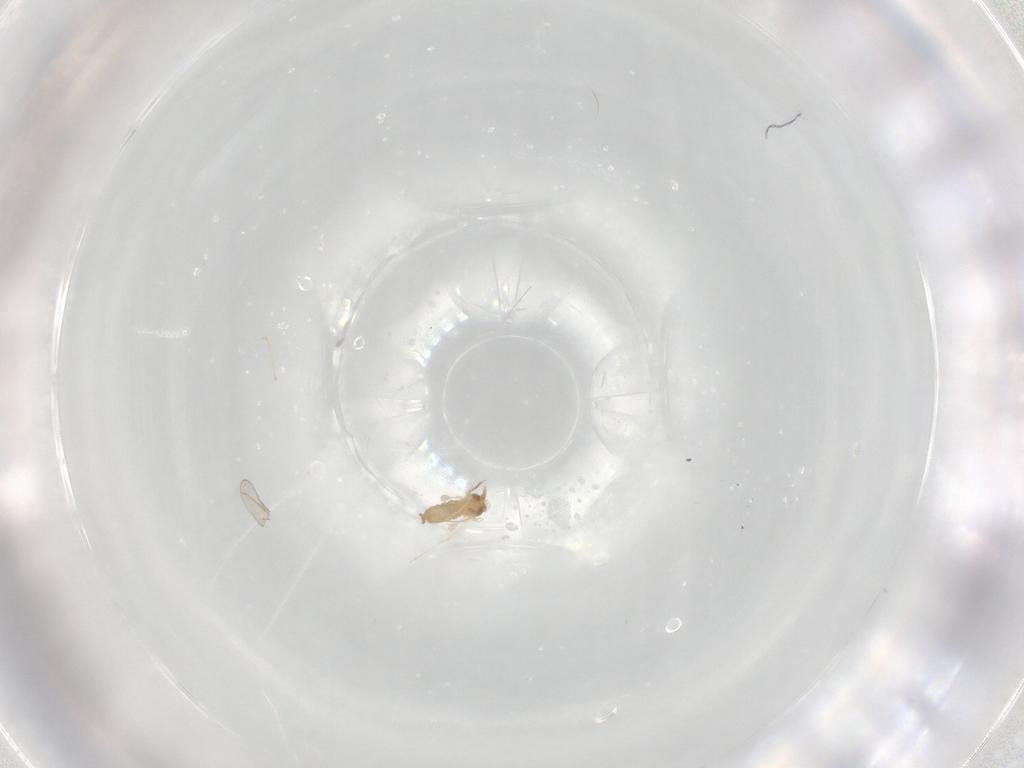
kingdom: Animalia
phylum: Arthropoda
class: Insecta
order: Diptera
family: Cecidomyiidae
